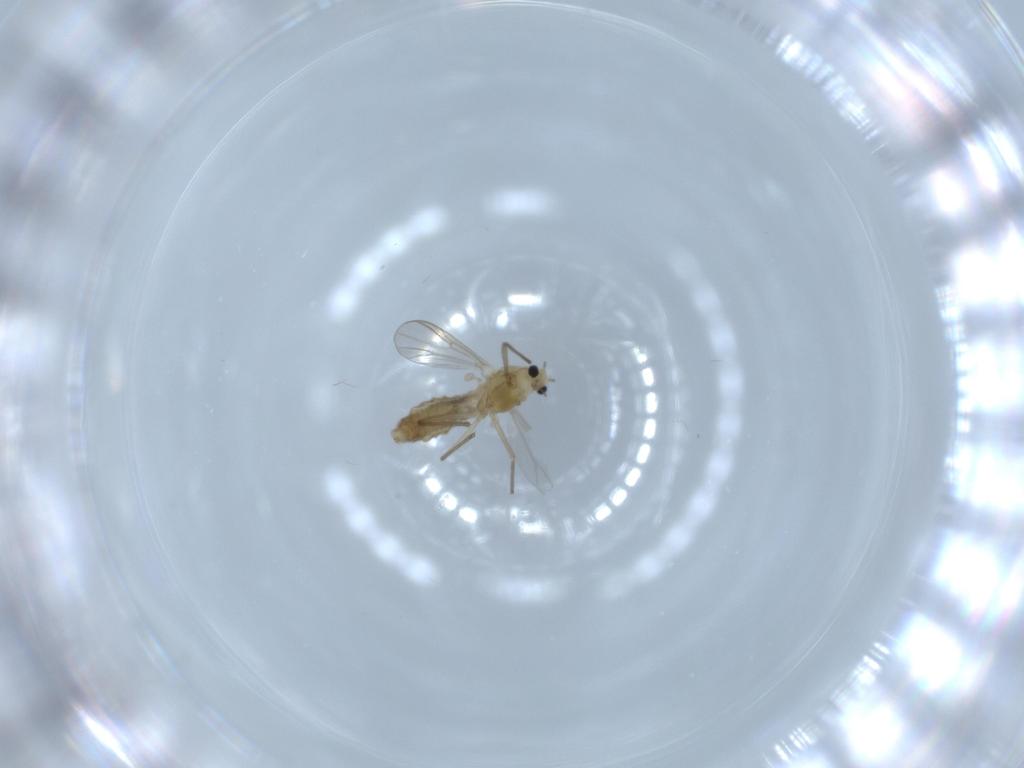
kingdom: Animalia
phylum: Arthropoda
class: Insecta
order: Diptera
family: Chironomidae
